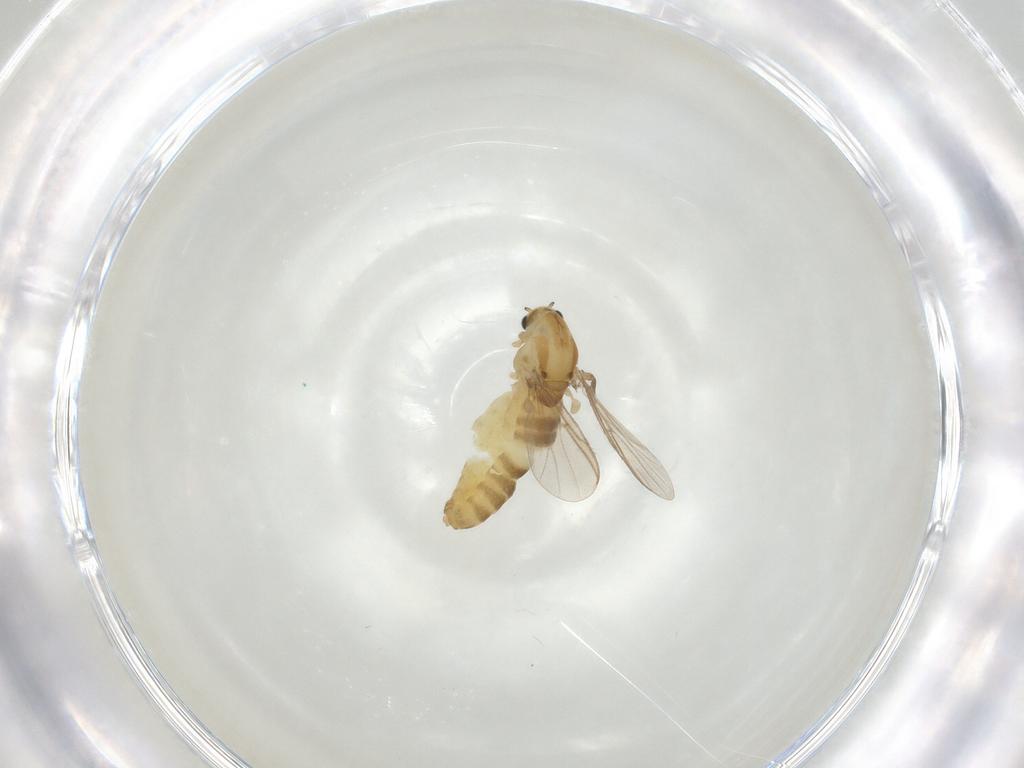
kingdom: Animalia
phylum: Arthropoda
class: Insecta
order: Diptera
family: Cecidomyiidae
